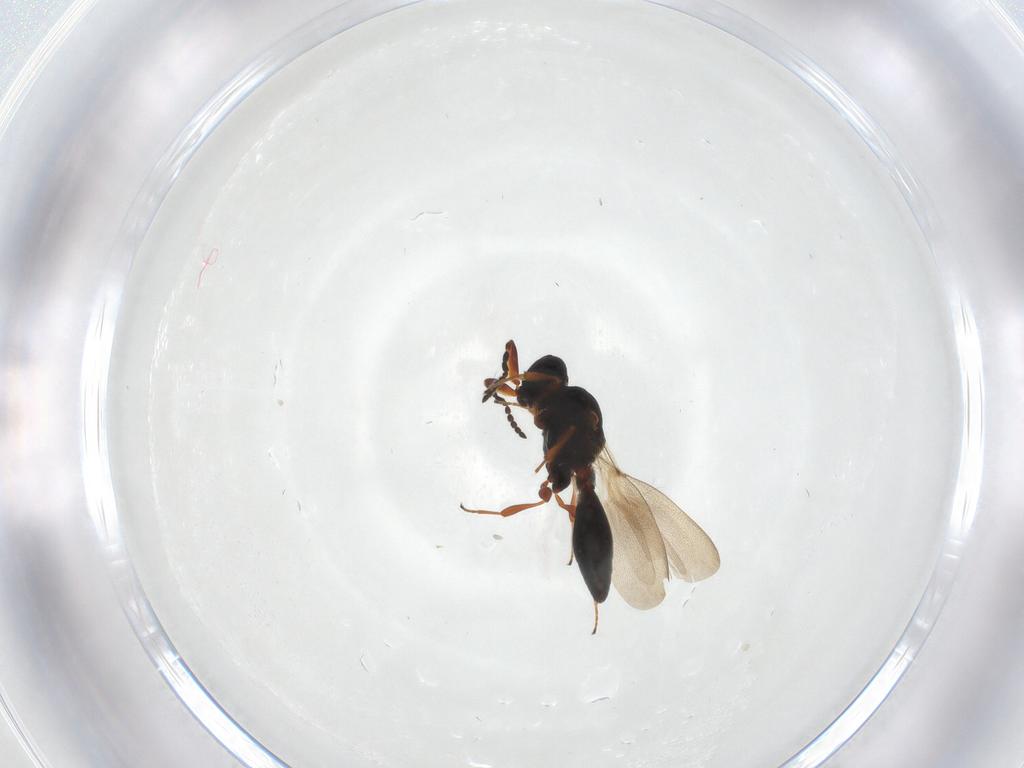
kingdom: Animalia
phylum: Arthropoda
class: Insecta
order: Hymenoptera
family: Platygastridae
